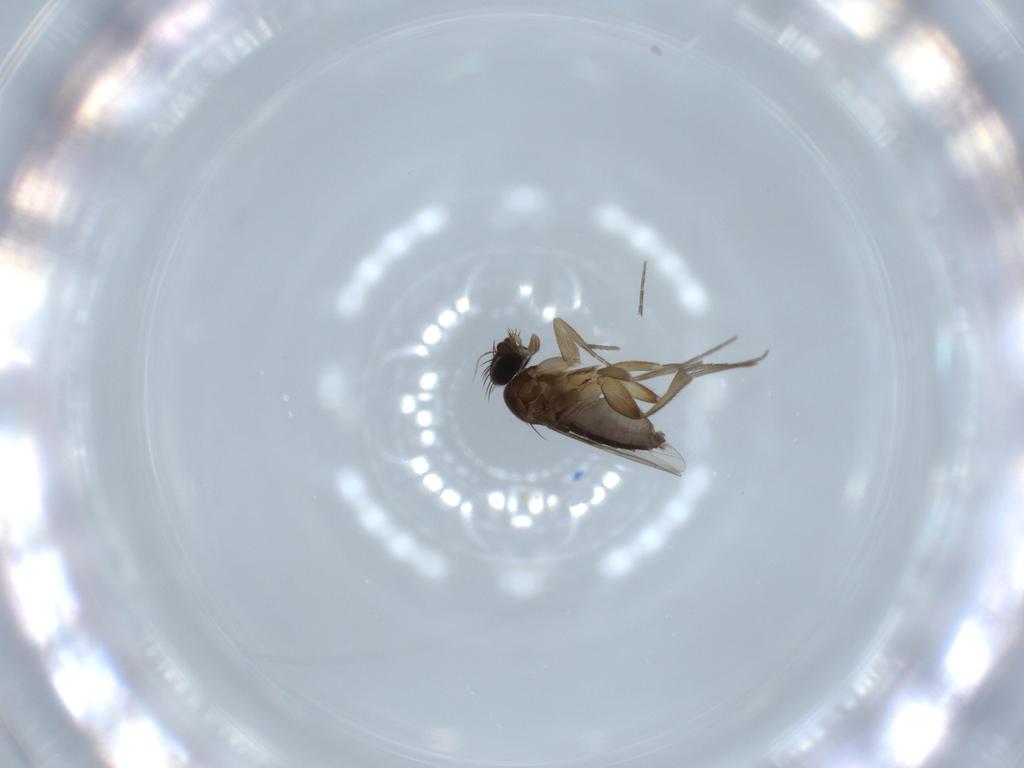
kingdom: Animalia
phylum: Arthropoda
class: Insecta
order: Diptera
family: Phoridae
